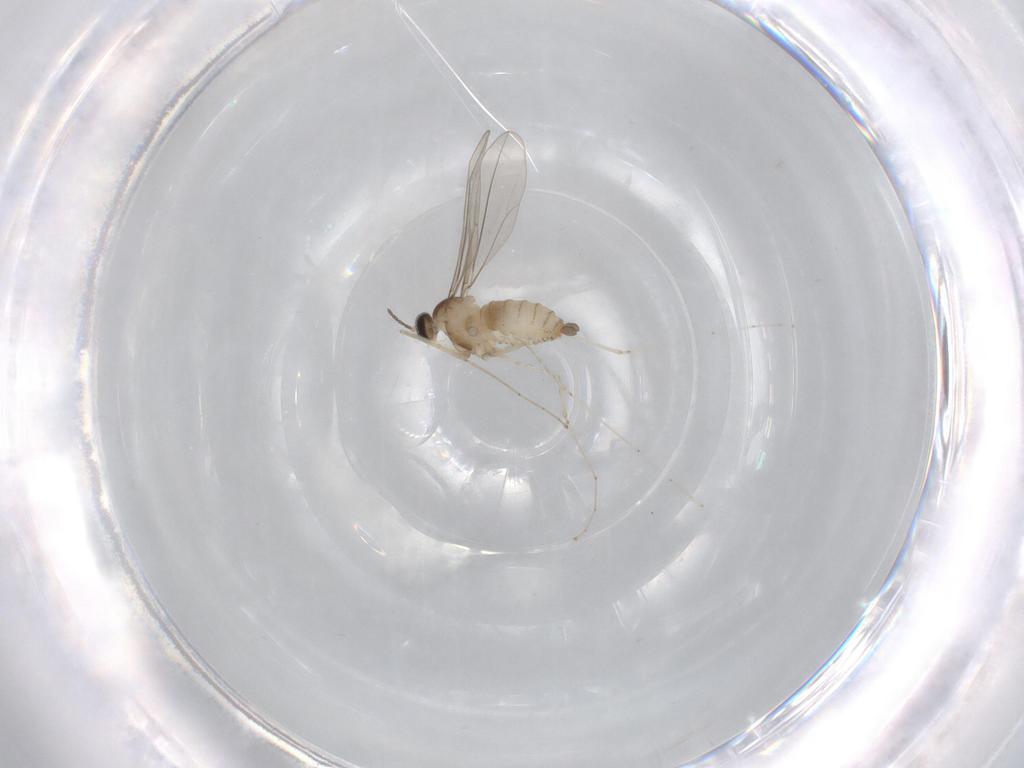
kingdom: Animalia
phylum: Arthropoda
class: Insecta
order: Diptera
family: Cecidomyiidae
